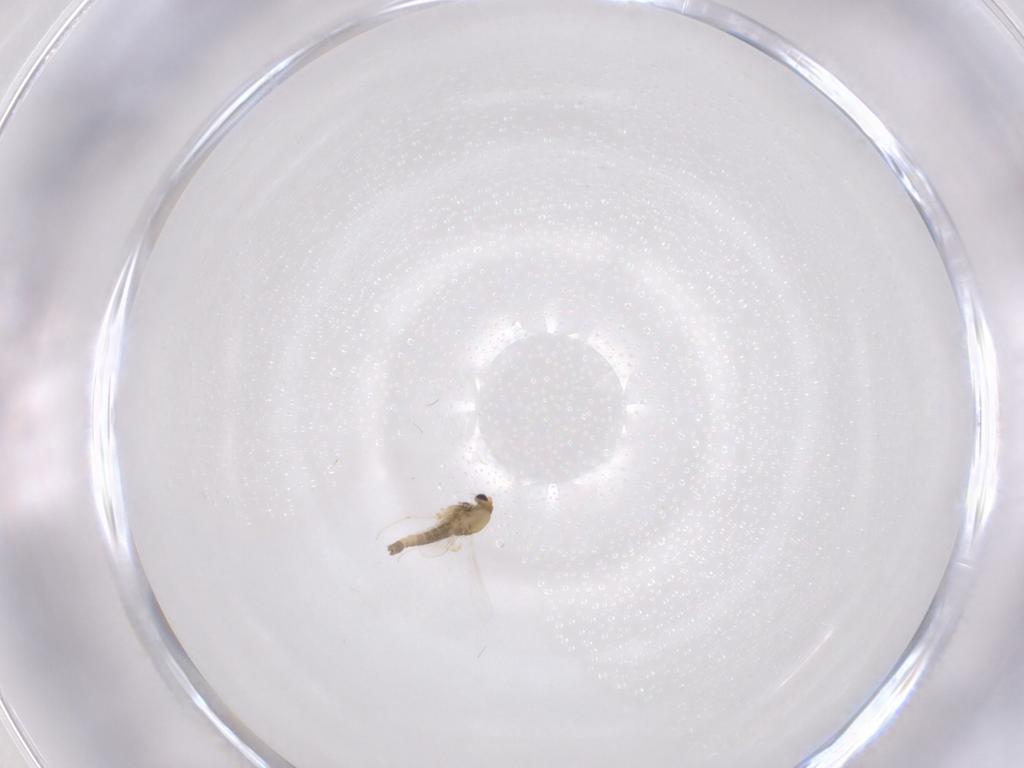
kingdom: Animalia
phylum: Arthropoda
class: Insecta
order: Diptera
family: Chironomidae
